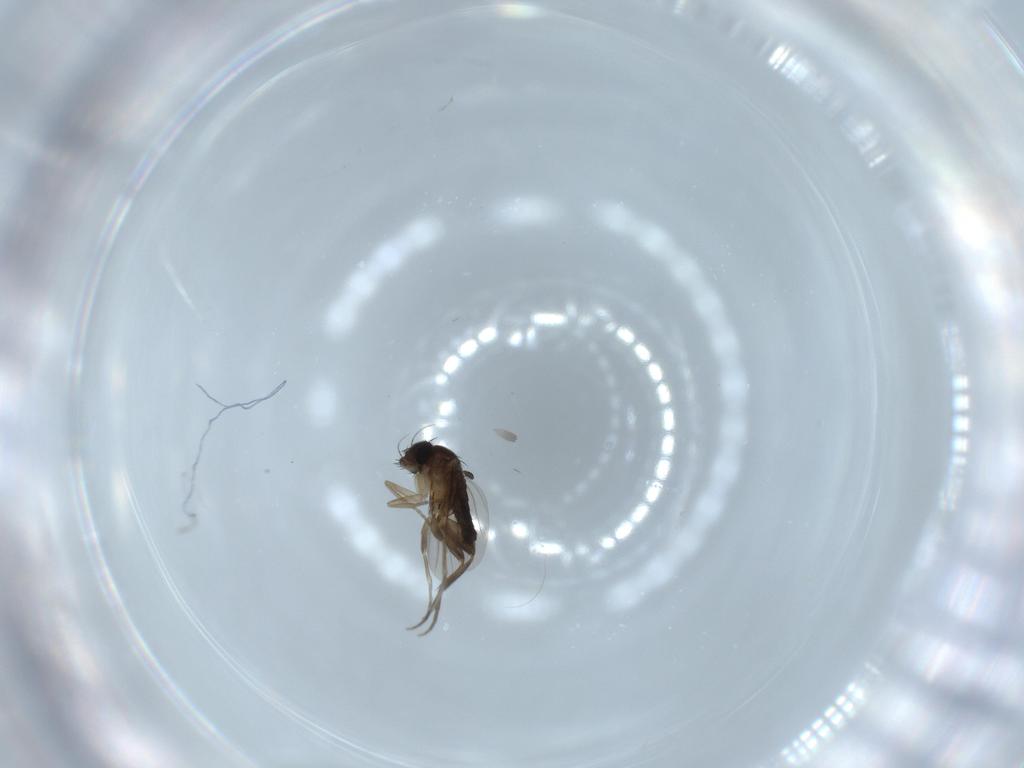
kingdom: Animalia
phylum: Arthropoda
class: Insecta
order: Diptera
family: Phoridae
